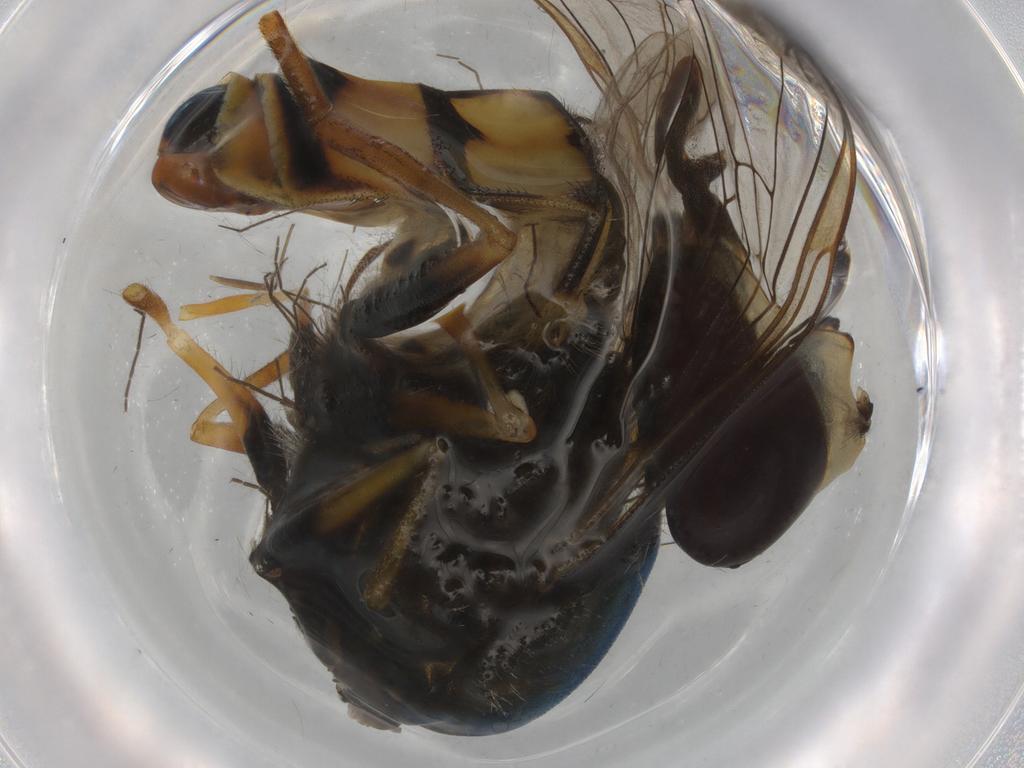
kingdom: Animalia
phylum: Arthropoda
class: Insecta
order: Diptera
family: Syrphidae
